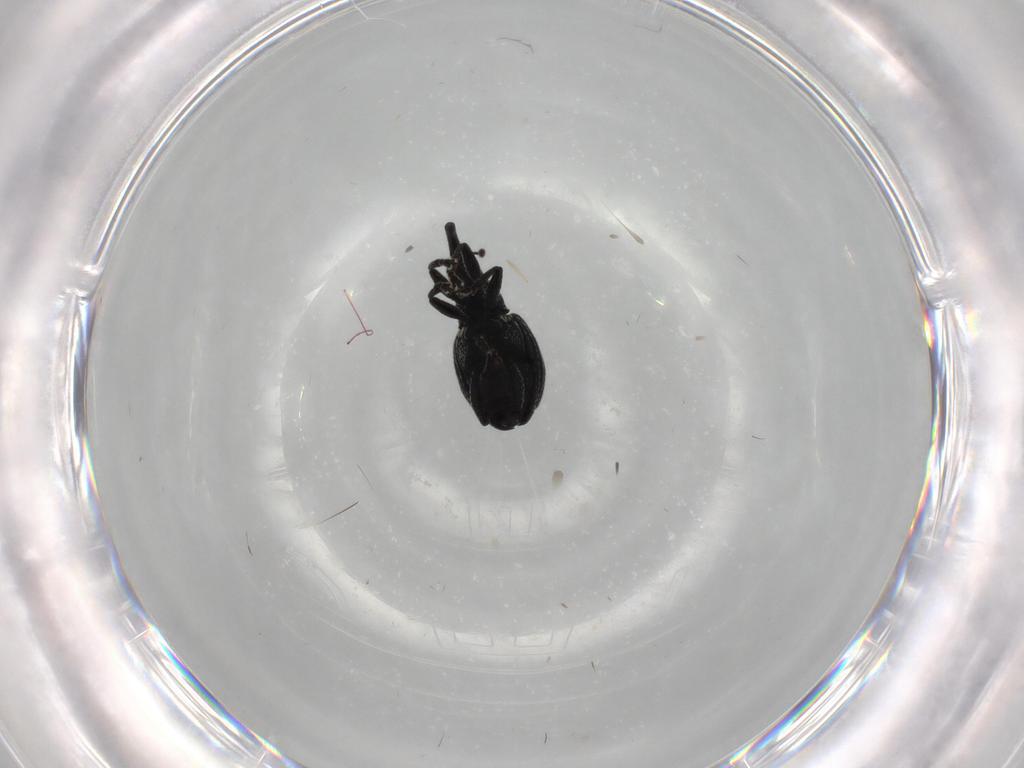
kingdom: Animalia
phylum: Arthropoda
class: Insecta
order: Coleoptera
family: Brentidae
